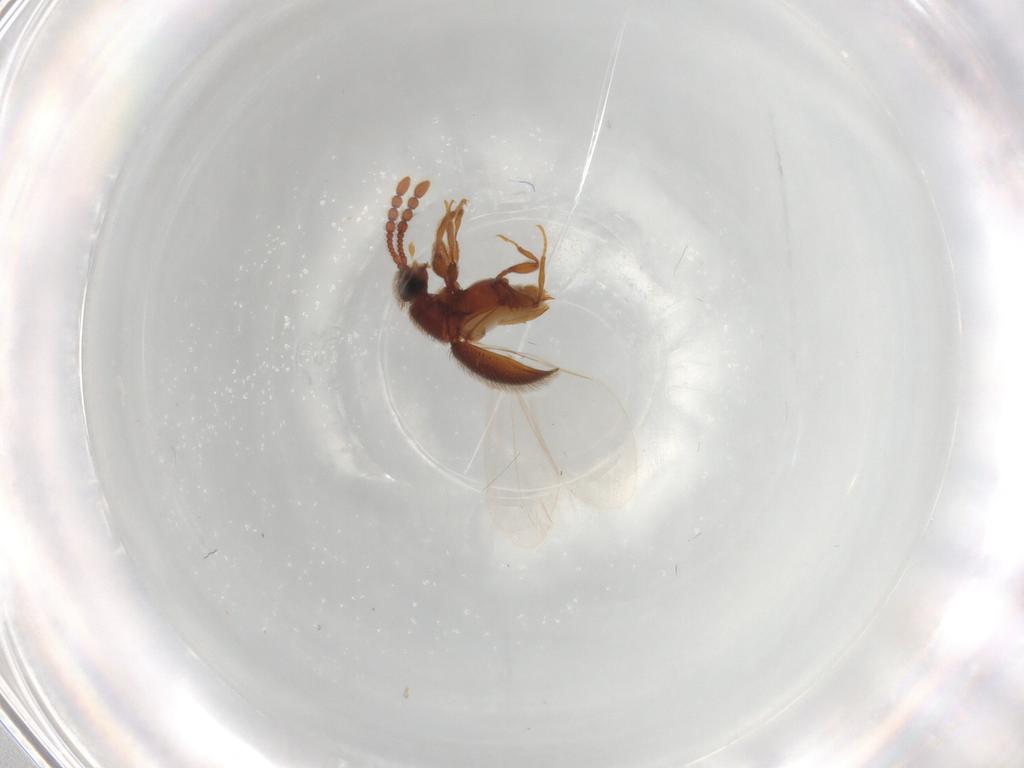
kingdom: Animalia
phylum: Arthropoda
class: Insecta
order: Coleoptera
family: Staphylinidae
